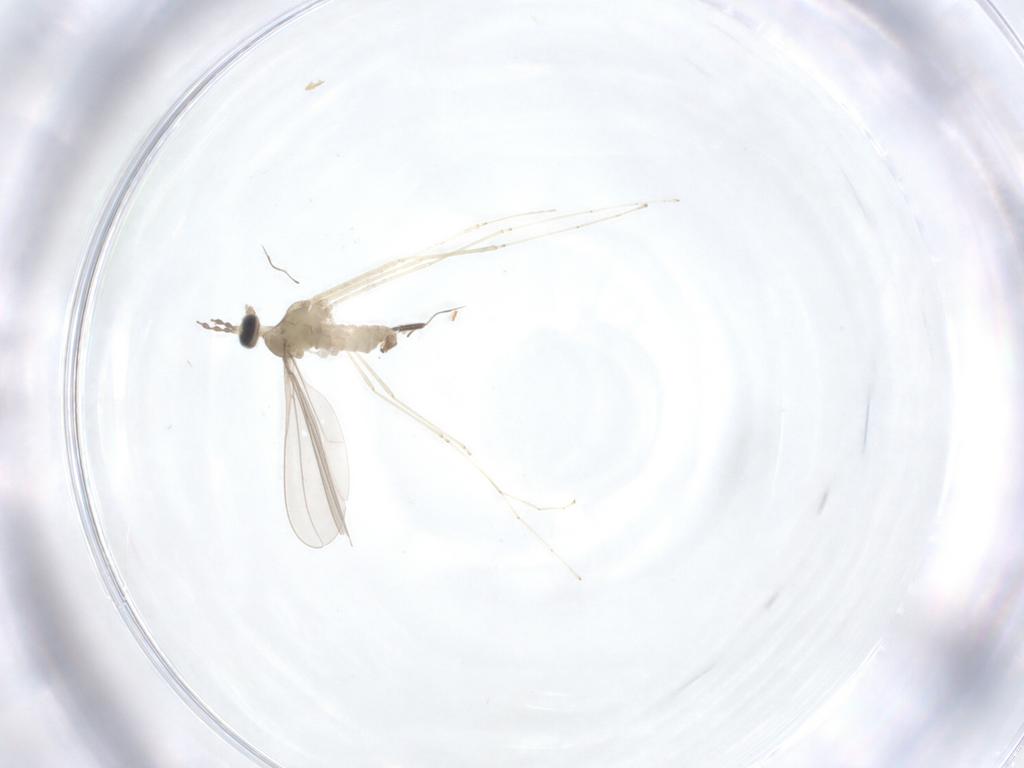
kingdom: Animalia
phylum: Arthropoda
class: Insecta
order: Diptera
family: Cecidomyiidae
